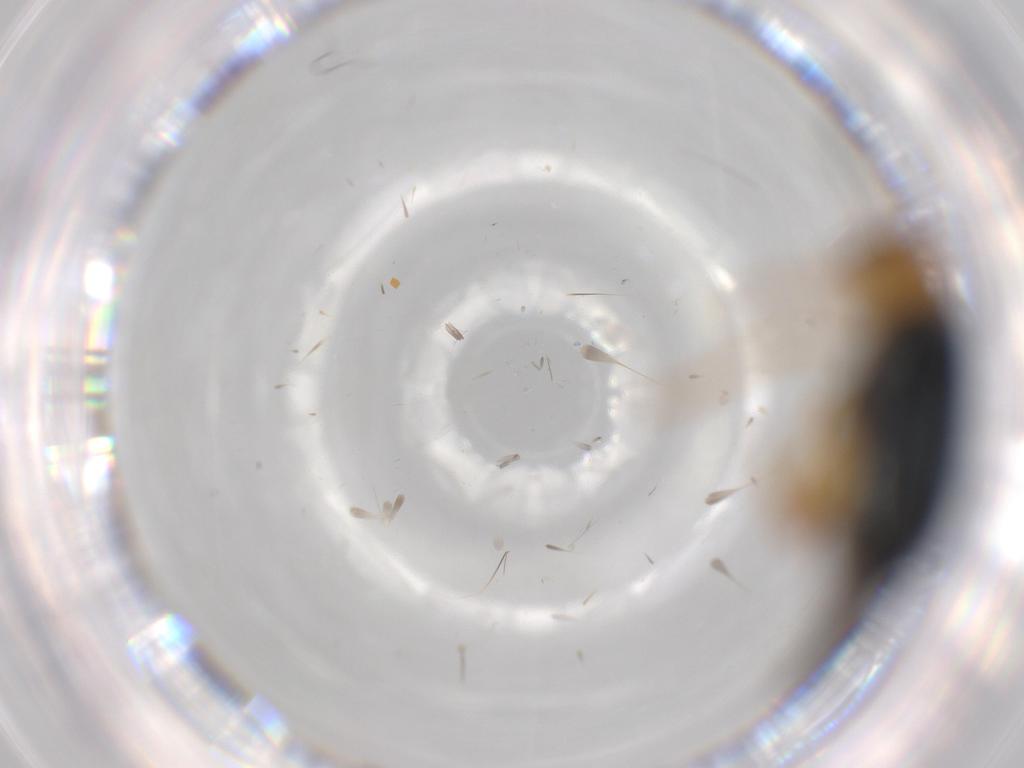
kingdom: Animalia
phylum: Arthropoda
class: Insecta
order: Coleoptera
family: Chrysomelidae
